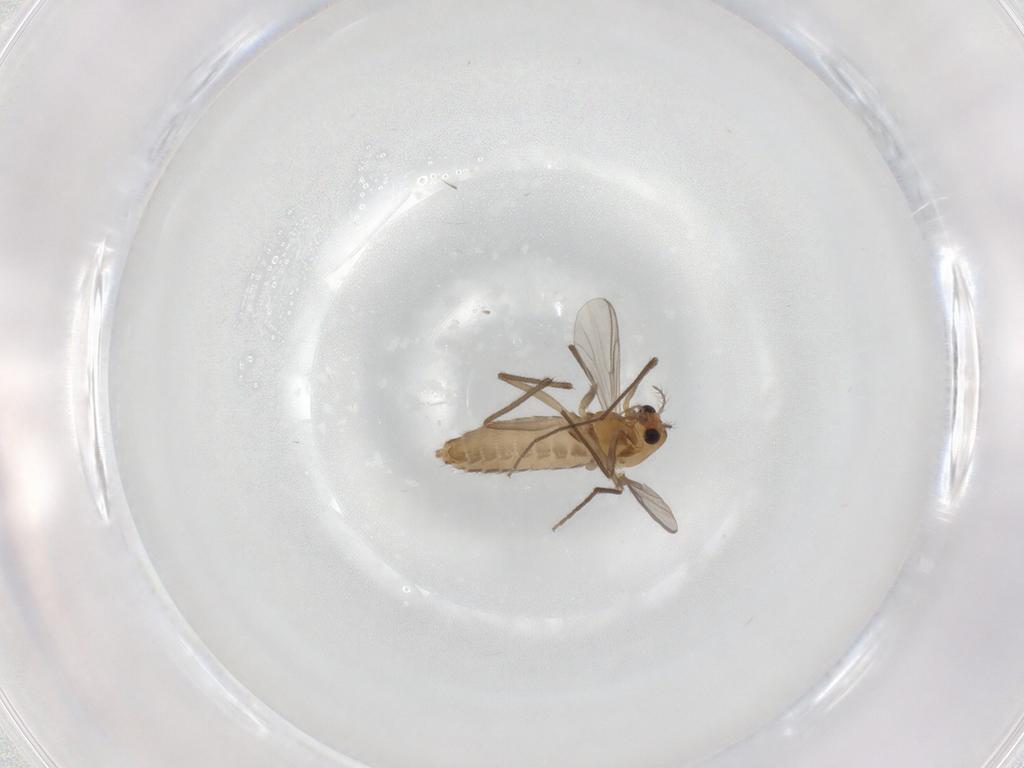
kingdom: Animalia
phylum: Arthropoda
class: Insecta
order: Diptera
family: Chironomidae
